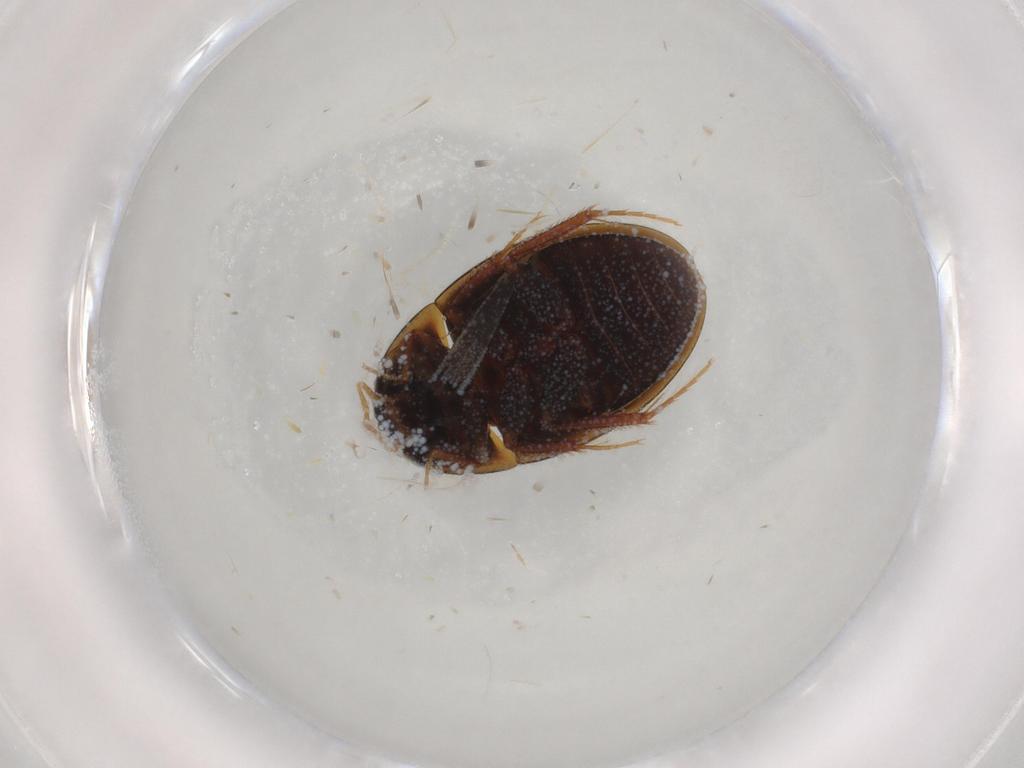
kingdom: Animalia
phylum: Arthropoda
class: Insecta
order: Coleoptera
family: Hydrophilidae
